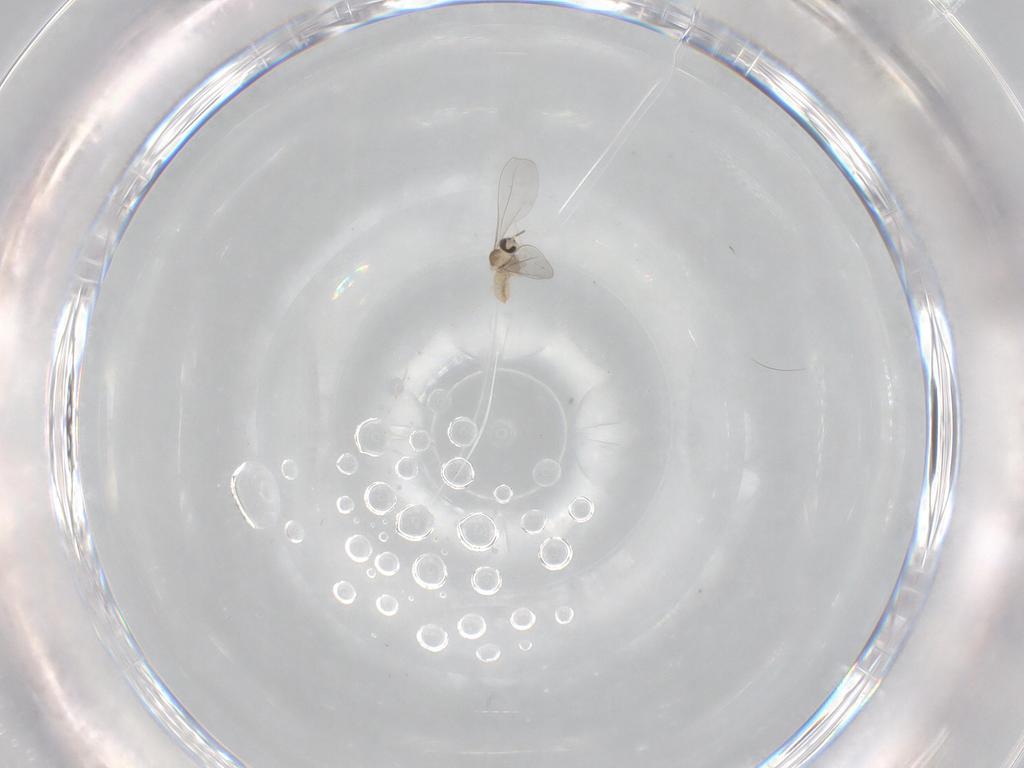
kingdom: Animalia
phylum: Arthropoda
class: Insecta
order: Diptera
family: Cecidomyiidae
